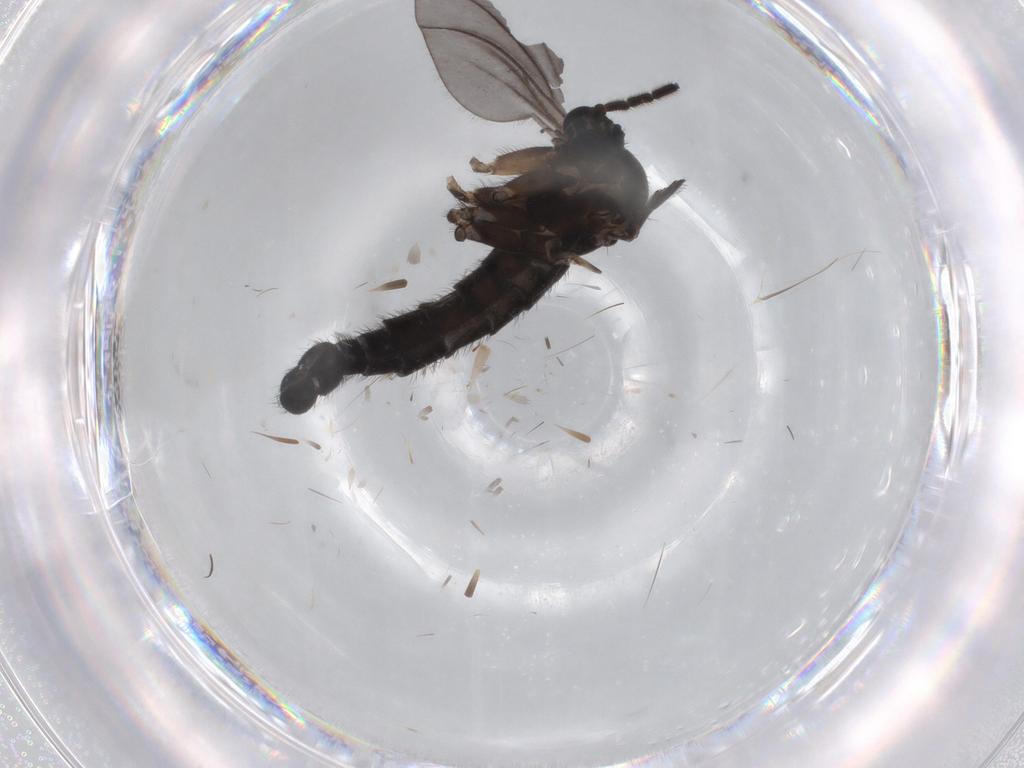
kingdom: Animalia
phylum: Arthropoda
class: Insecta
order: Diptera
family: Sciaridae
